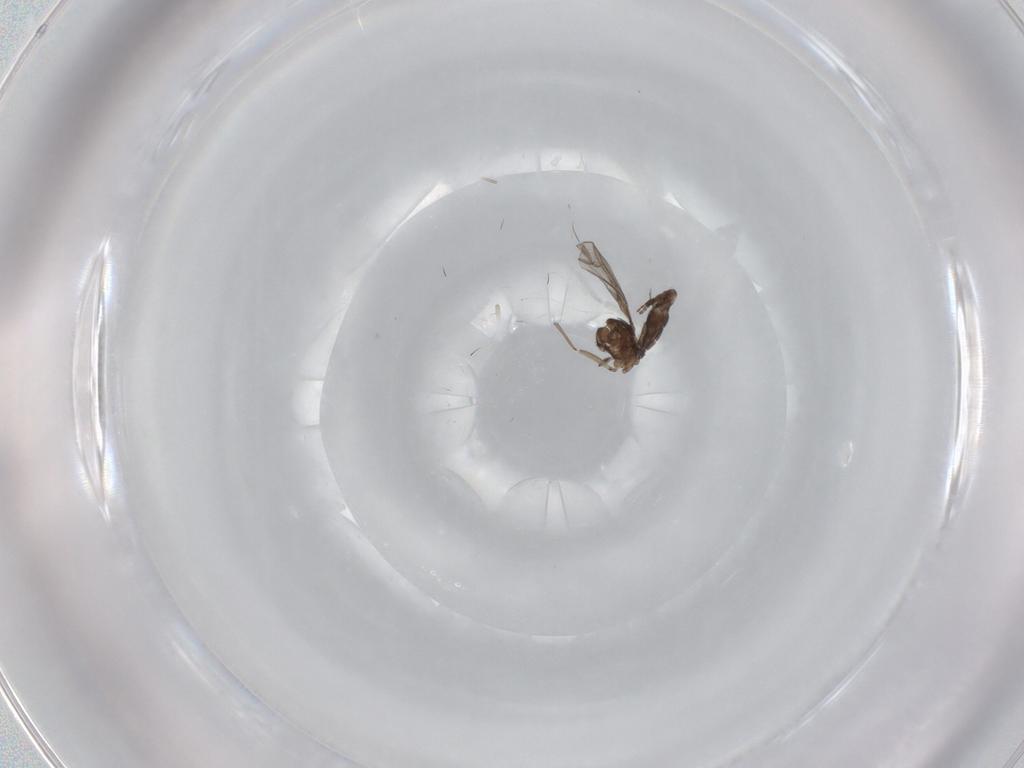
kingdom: Animalia
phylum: Arthropoda
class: Insecta
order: Diptera
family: Sciaridae
